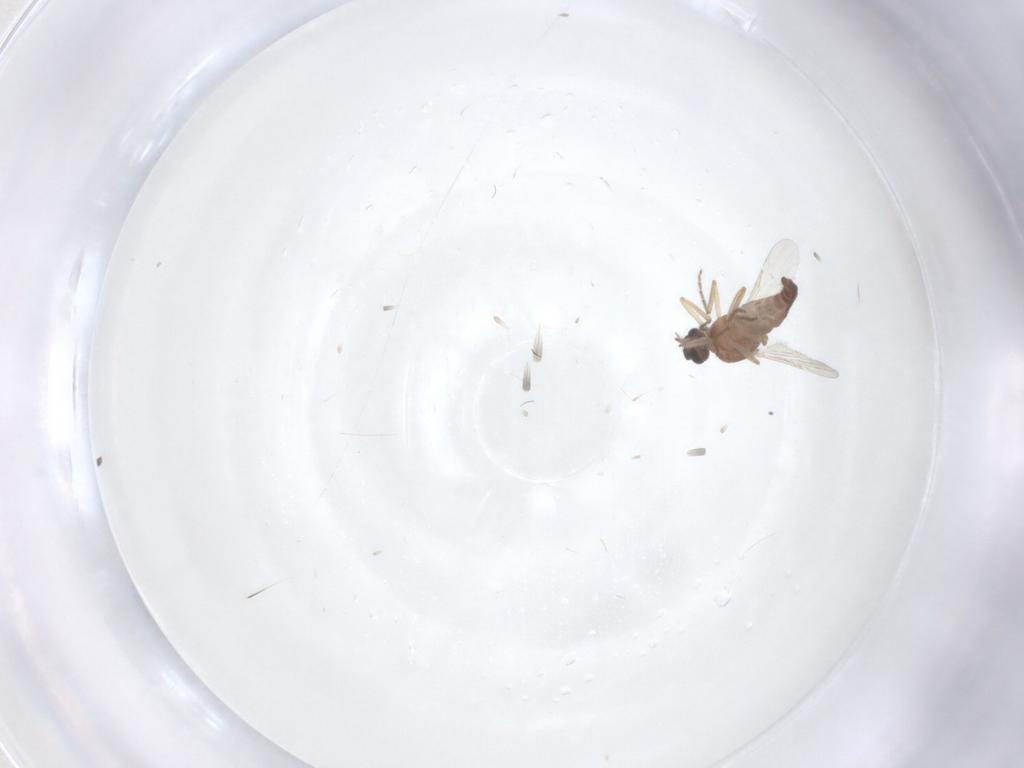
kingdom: Animalia
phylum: Arthropoda
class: Insecta
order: Diptera
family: Ceratopogonidae
